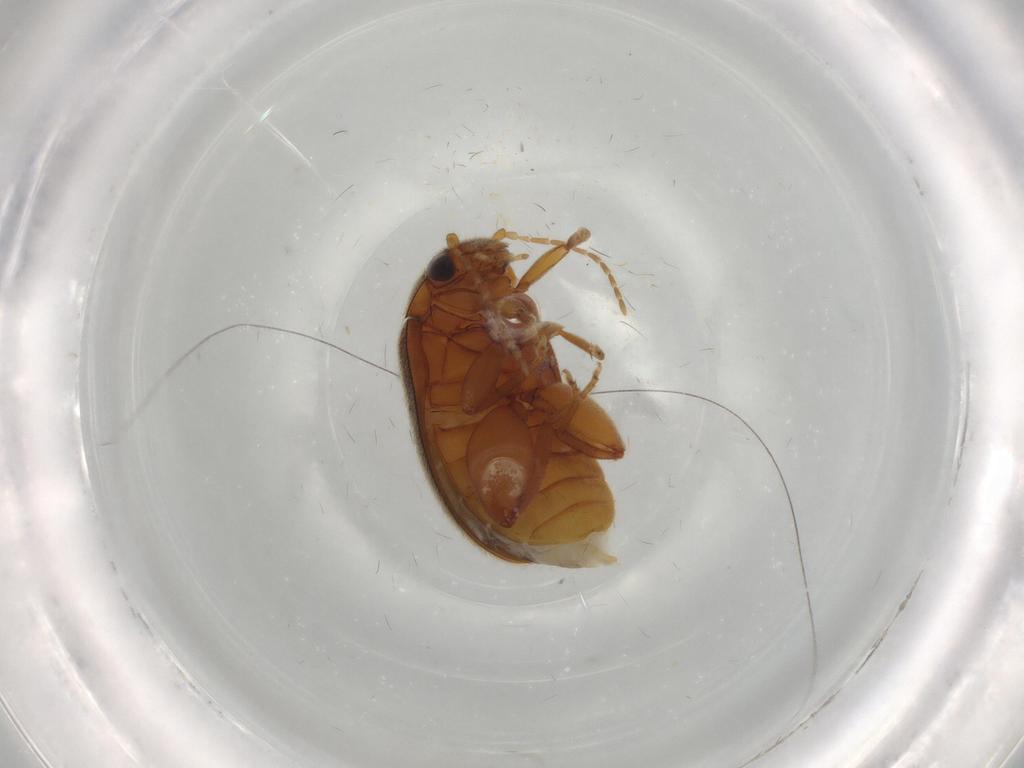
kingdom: Animalia
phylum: Arthropoda
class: Insecta
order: Coleoptera
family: Scirtidae
